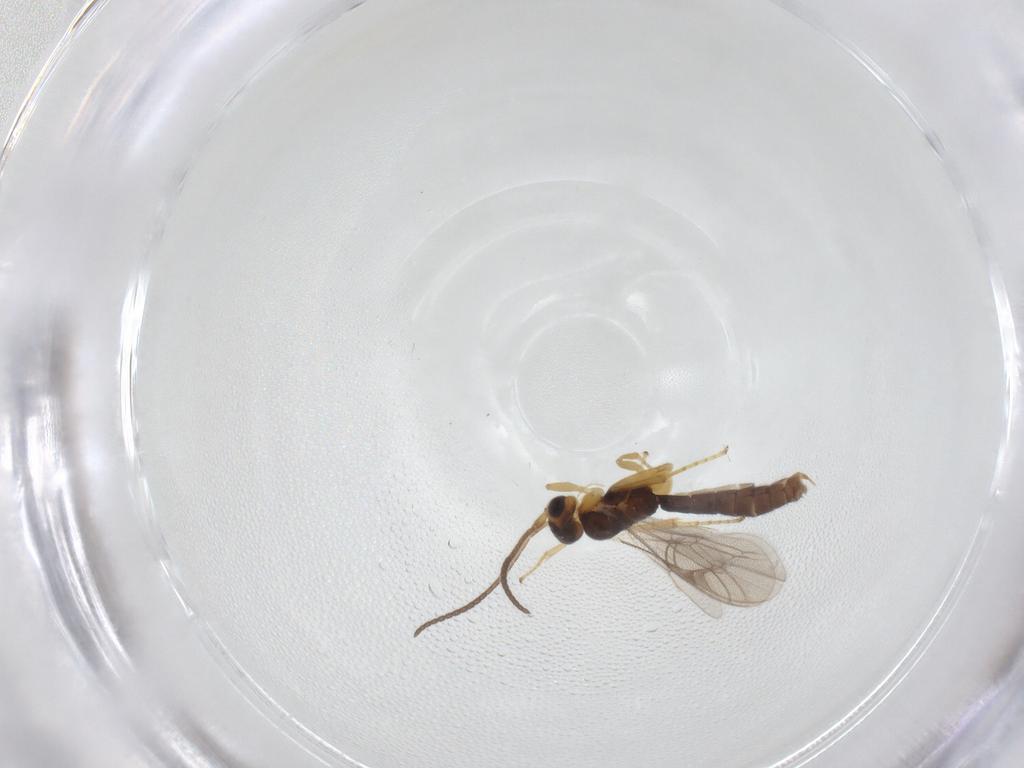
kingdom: Animalia
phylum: Arthropoda
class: Insecta
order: Hymenoptera
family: Ichneumonidae
